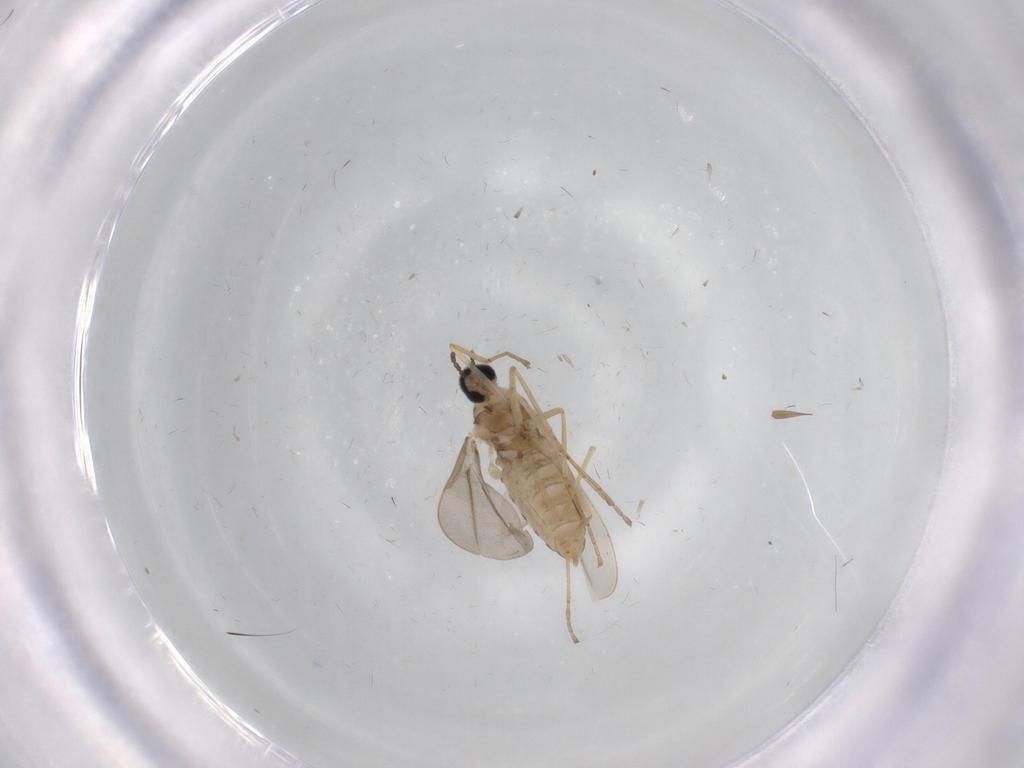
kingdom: Animalia
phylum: Arthropoda
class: Insecta
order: Diptera
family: Hybotidae
